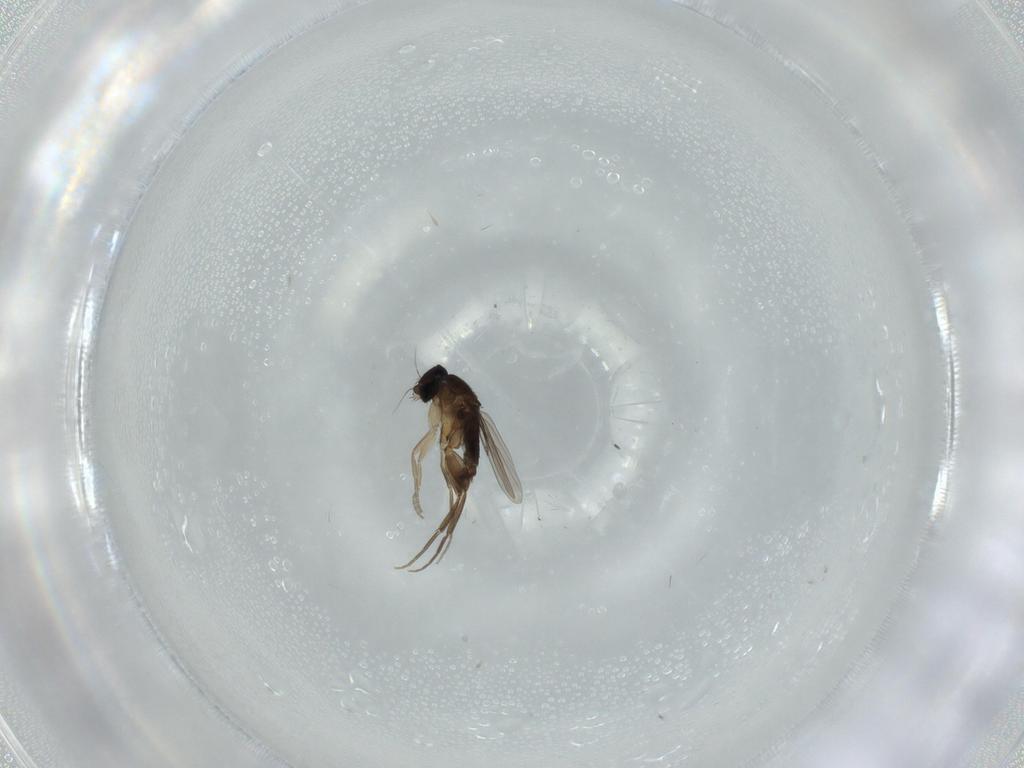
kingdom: Animalia
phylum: Arthropoda
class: Insecta
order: Diptera
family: Phoridae
